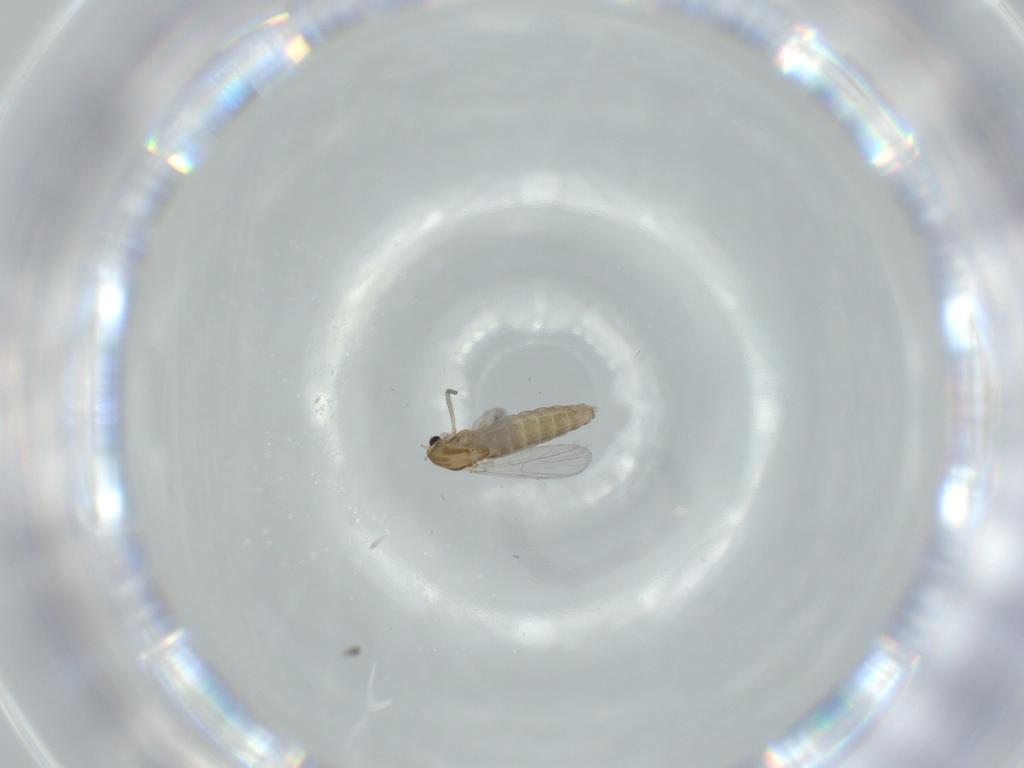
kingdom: Animalia
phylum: Arthropoda
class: Insecta
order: Diptera
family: Chironomidae
